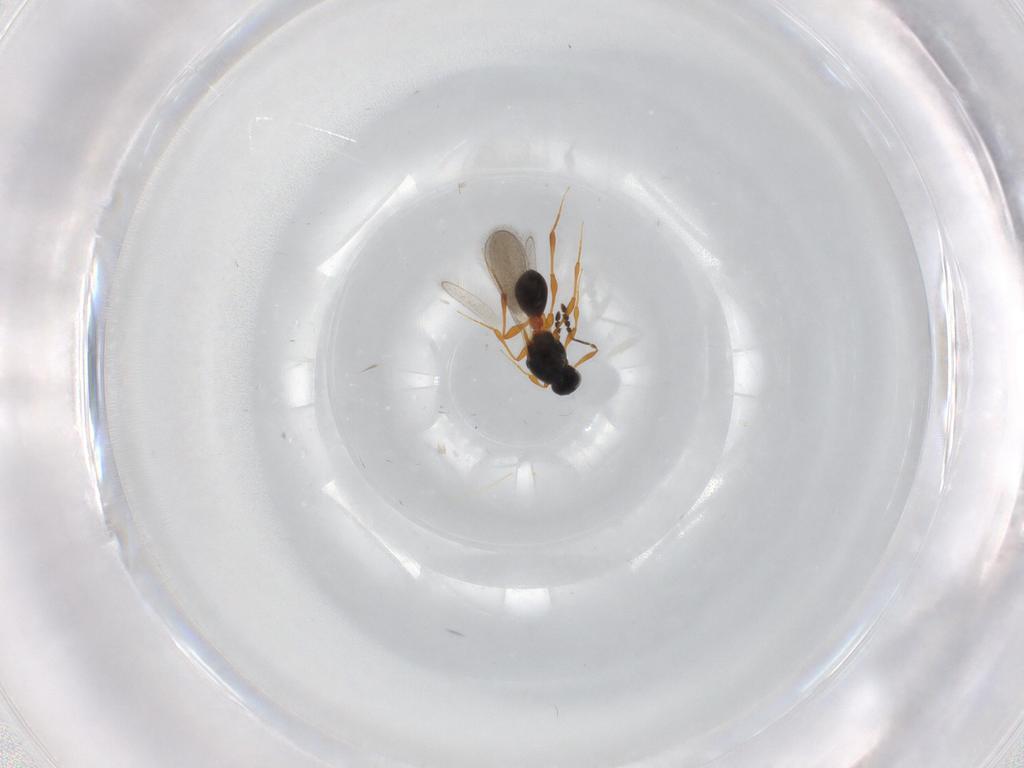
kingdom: Animalia
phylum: Arthropoda
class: Insecta
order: Hymenoptera
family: Platygastridae
